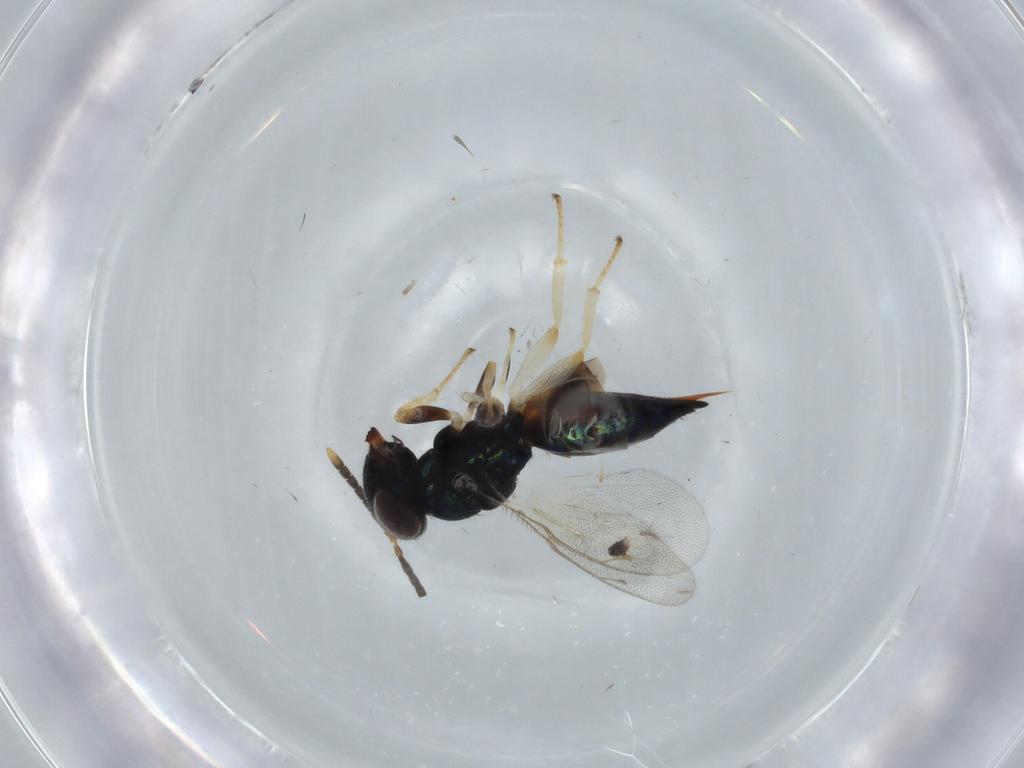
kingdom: Animalia
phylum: Arthropoda
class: Insecta
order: Hymenoptera
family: Pteromalidae
